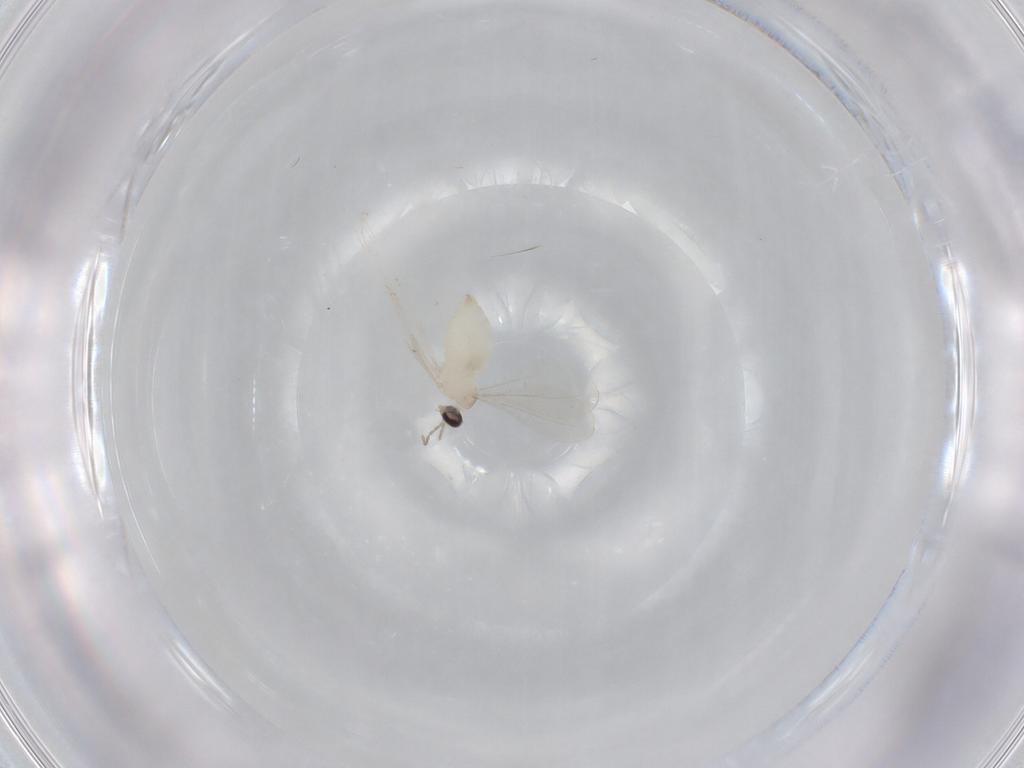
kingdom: Animalia
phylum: Arthropoda
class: Insecta
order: Diptera
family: Cecidomyiidae
